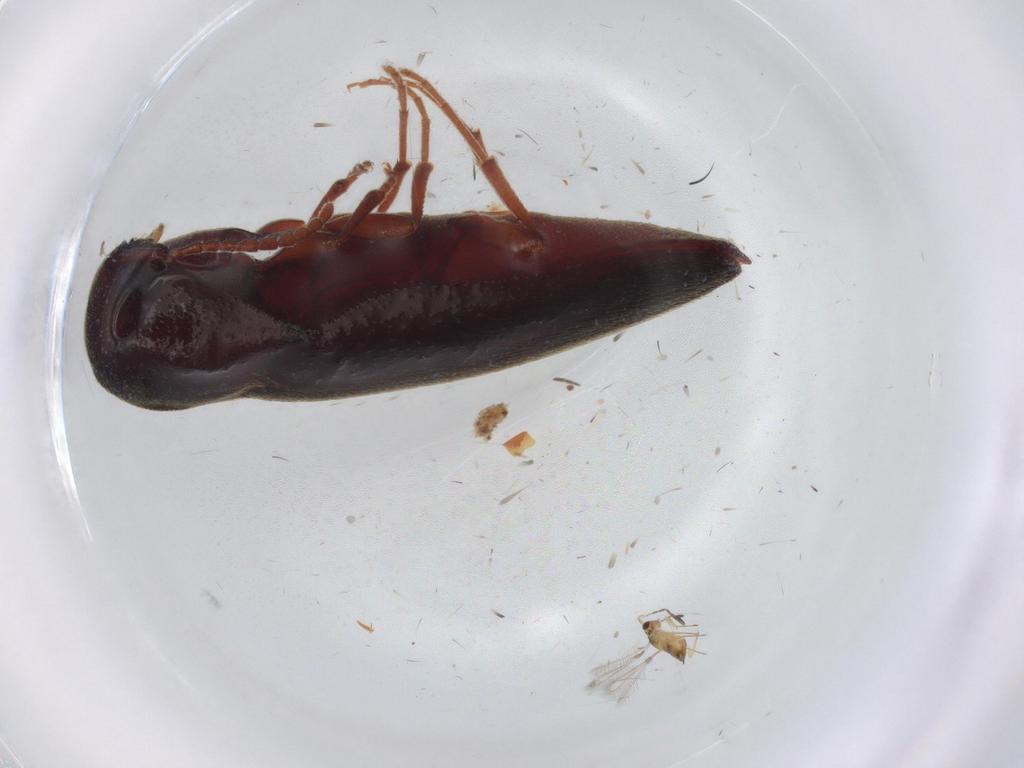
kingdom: Animalia
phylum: Arthropoda
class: Insecta
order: Coleoptera
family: Eucnemidae
